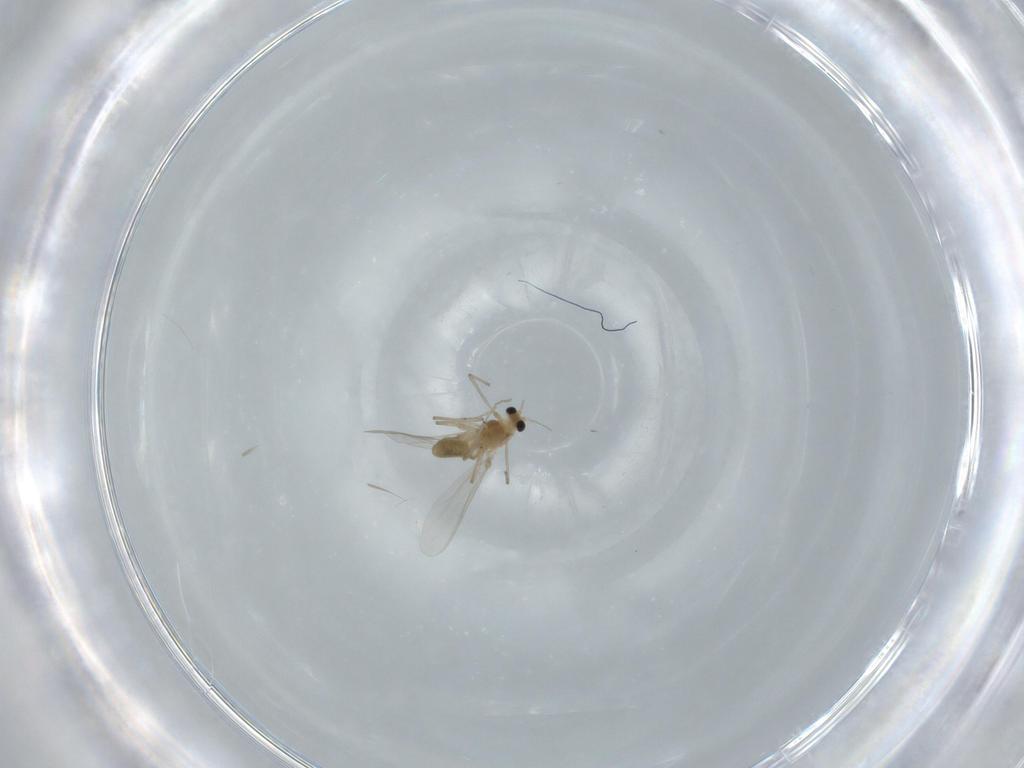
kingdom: Animalia
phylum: Arthropoda
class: Insecta
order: Diptera
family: Chironomidae
